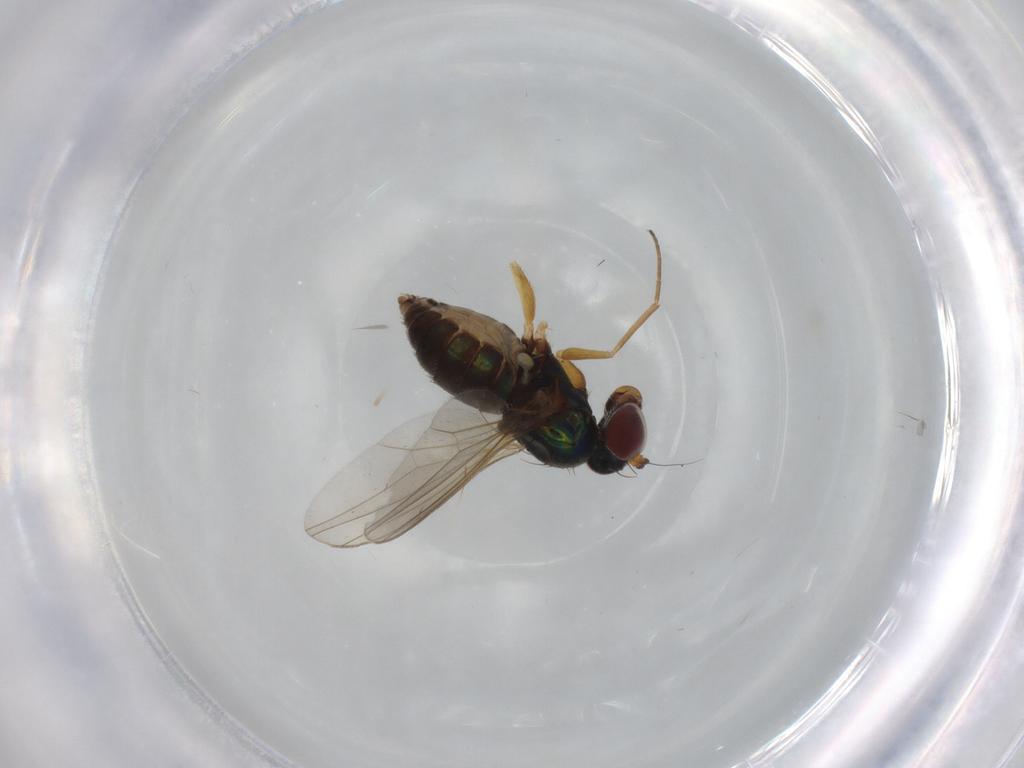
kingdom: Animalia
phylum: Arthropoda
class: Insecta
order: Diptera
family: Dolichopodidae
